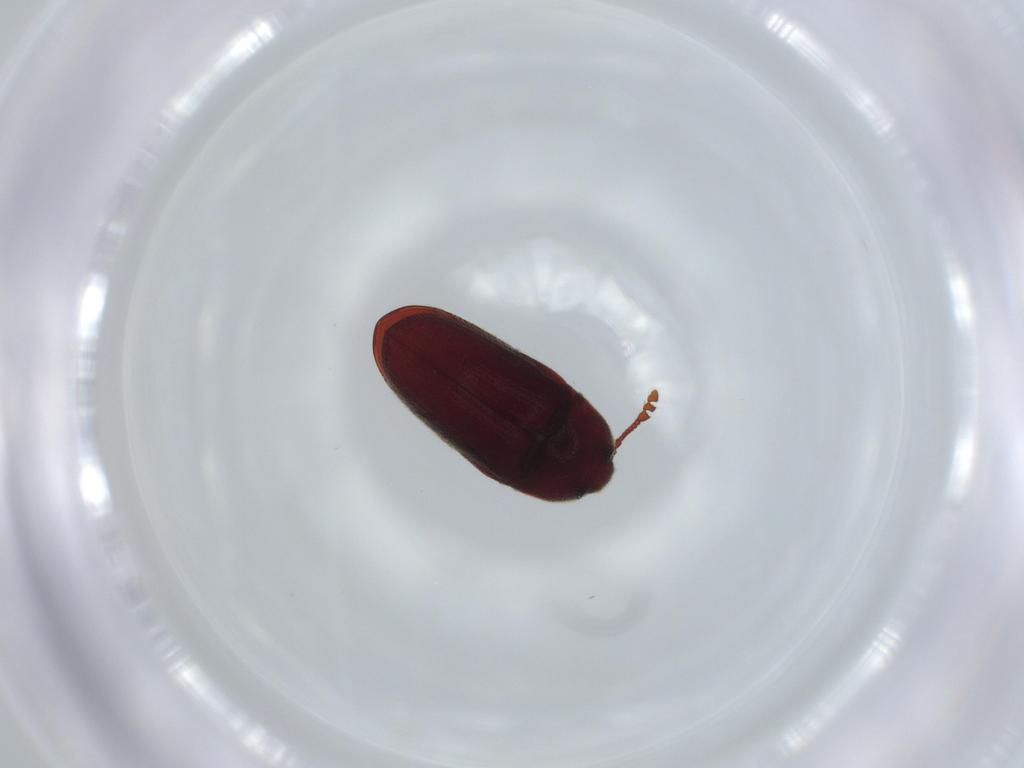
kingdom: Animalia
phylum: Arthropoda
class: Insecta
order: Coleoptera
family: Throscidae
